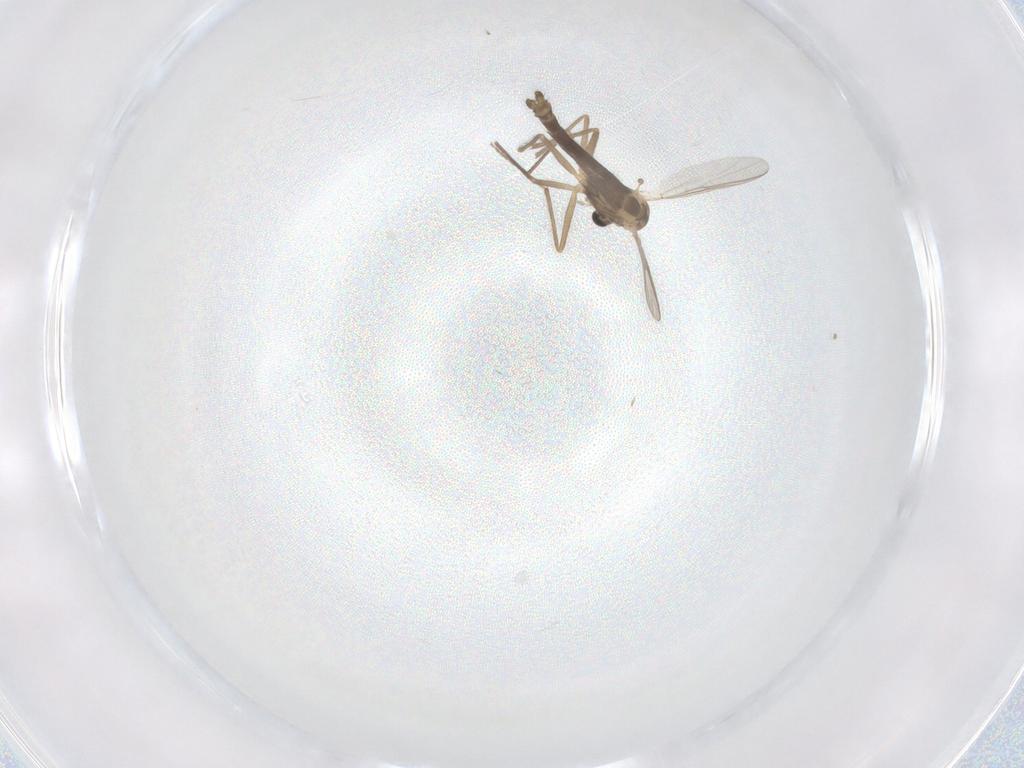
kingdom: Animalia
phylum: Arthropoda
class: Insecta
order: Diptera
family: Chironomidae
